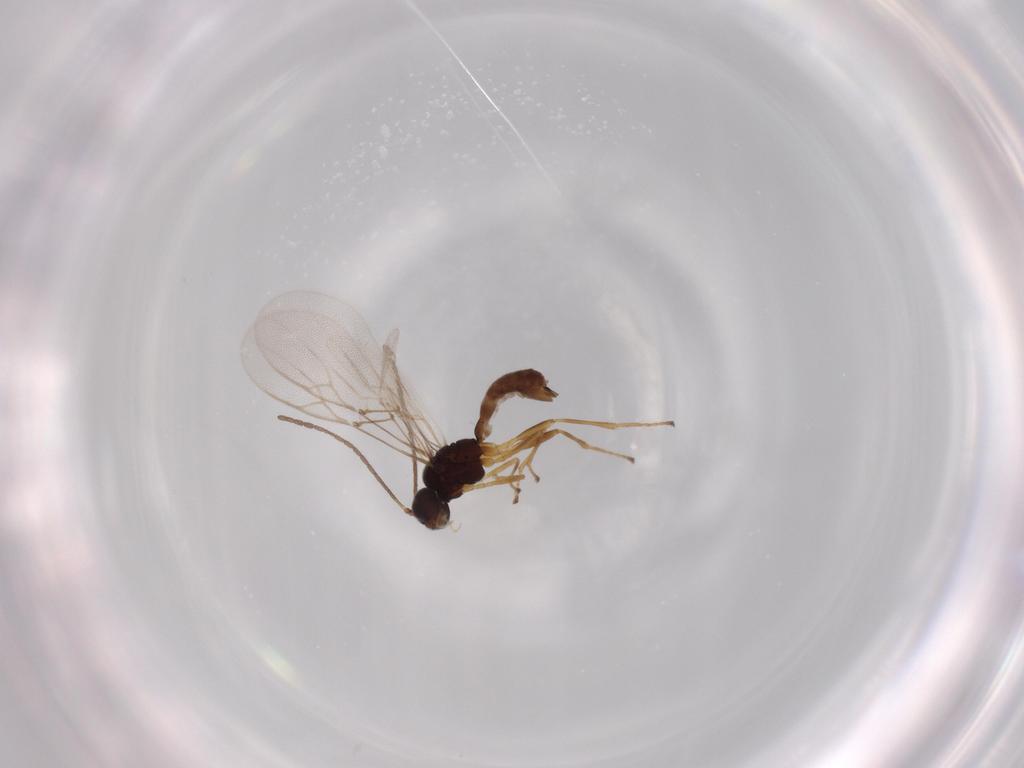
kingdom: Animalia
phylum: Arthropoda
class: Insecta
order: Hymenoptera
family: Braconidae
